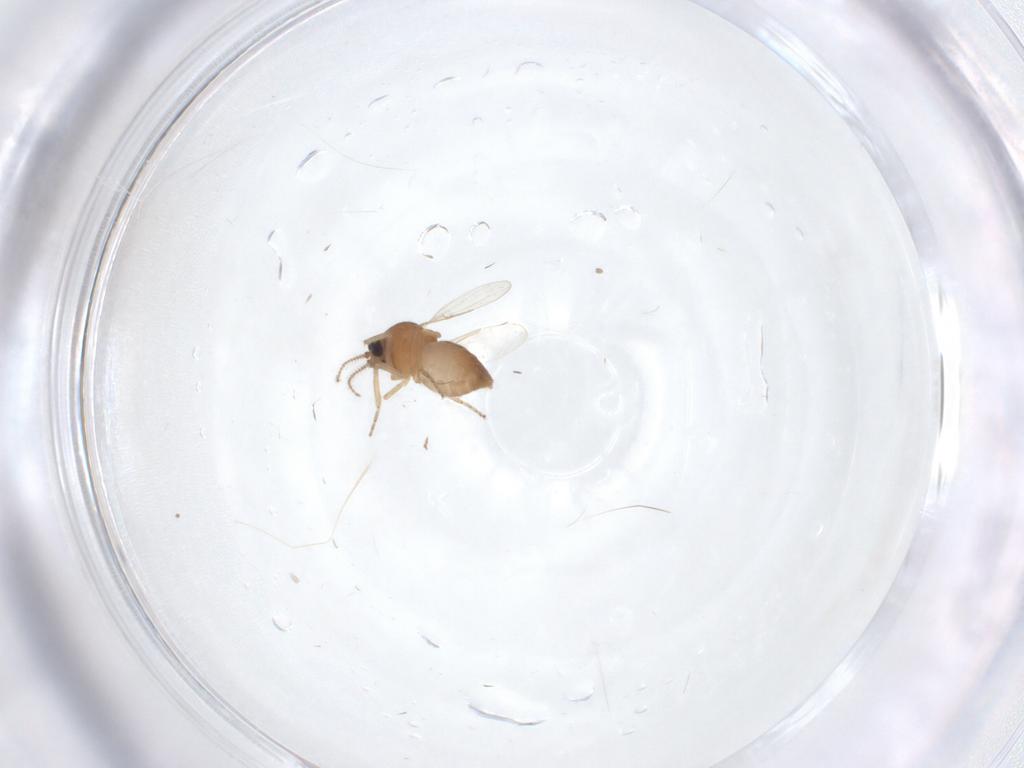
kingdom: Animalia
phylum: Arthropoda
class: Insecta
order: Diptera
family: Ceratopogonidae
